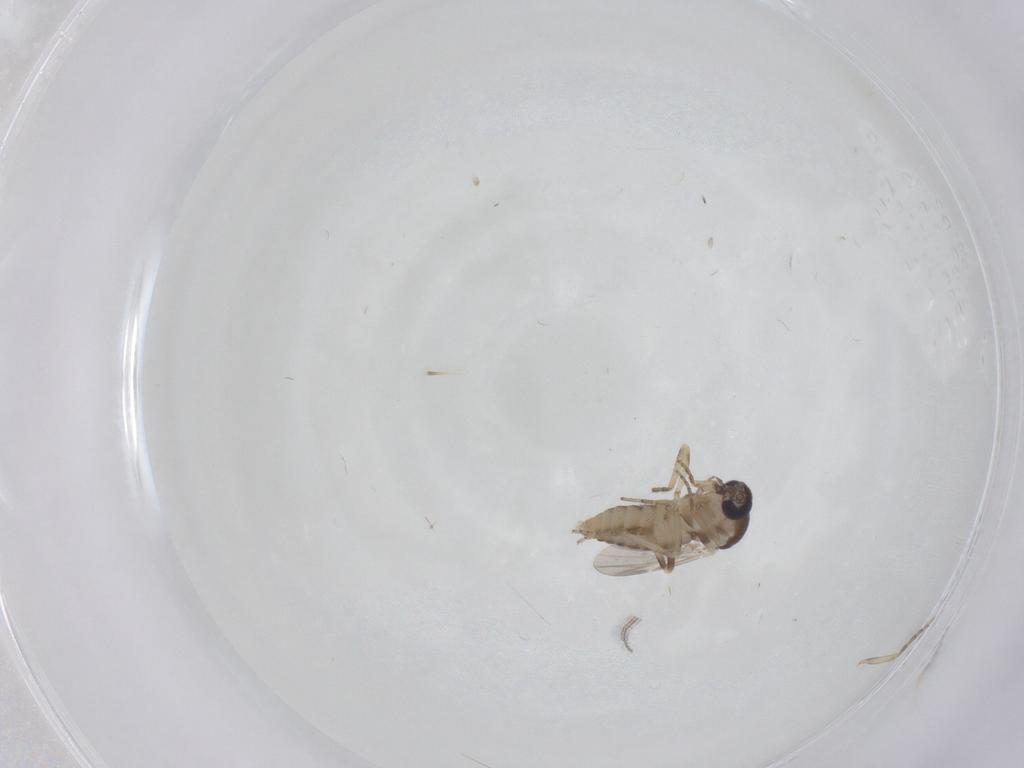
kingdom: Animalia
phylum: Arthropoda
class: Insecta
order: Diptera
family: Ceratopogonidae
